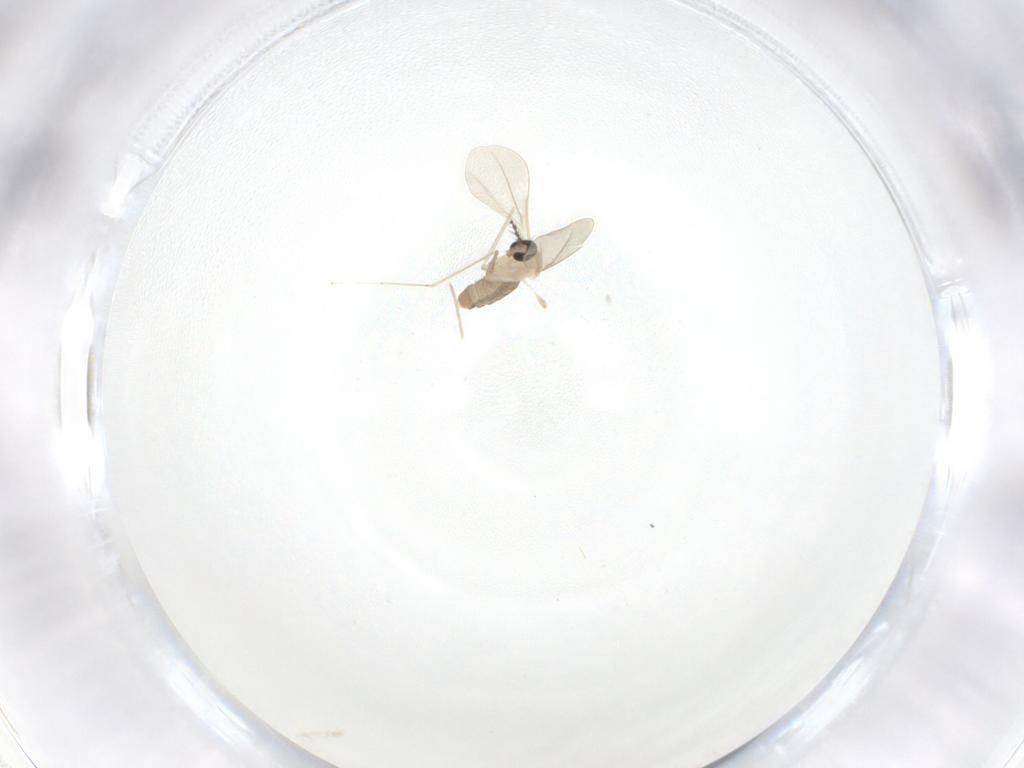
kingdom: Animalia
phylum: Arthropoda
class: Insecta
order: Diptera
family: Cecidomyiidae
